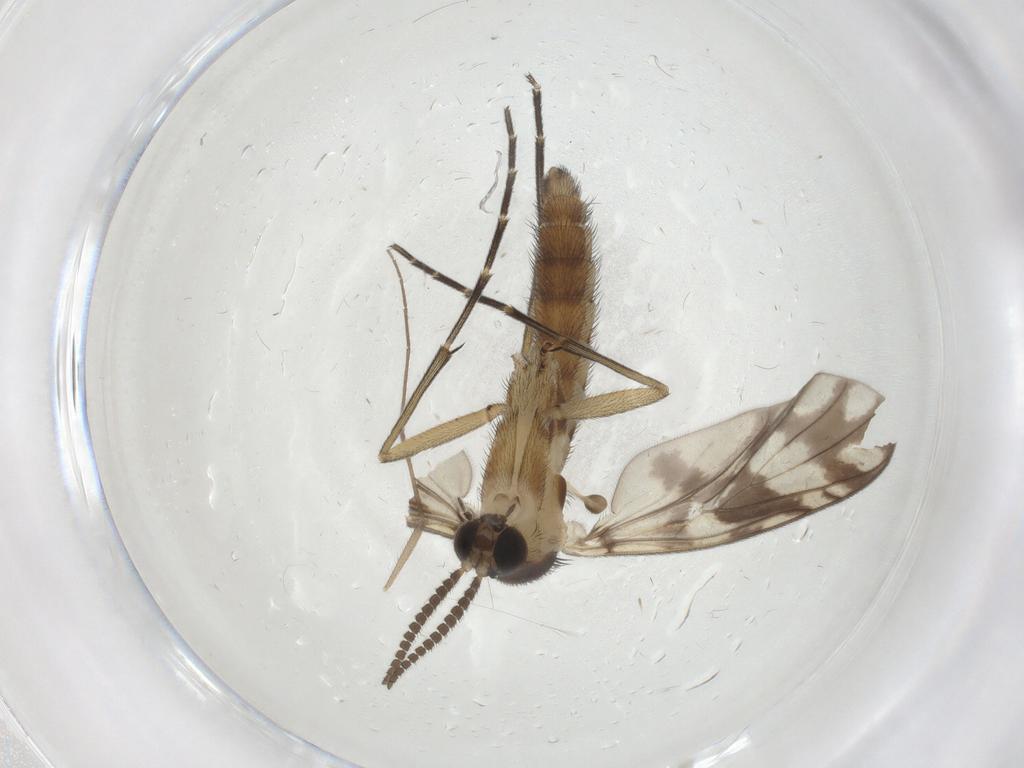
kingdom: Animalia
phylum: Arthropoda
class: Insecta
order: Diptera
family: Keroplatidae
